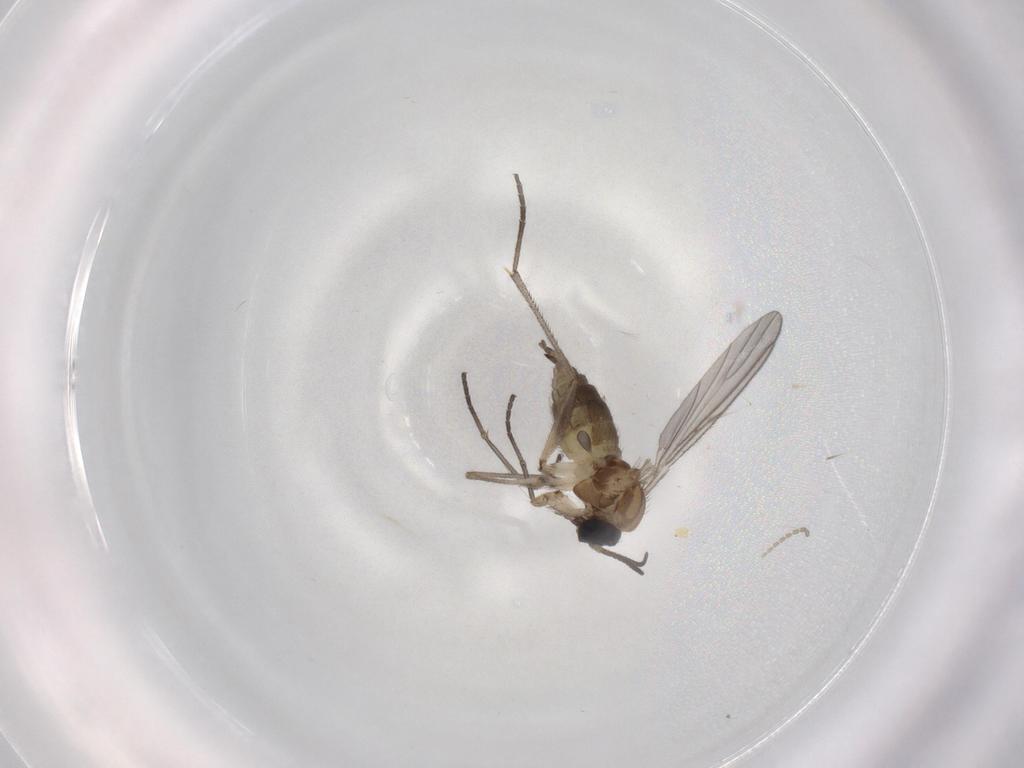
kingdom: Animalia
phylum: Arthropoda
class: Insecta
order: Diptera
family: Sciaridae
